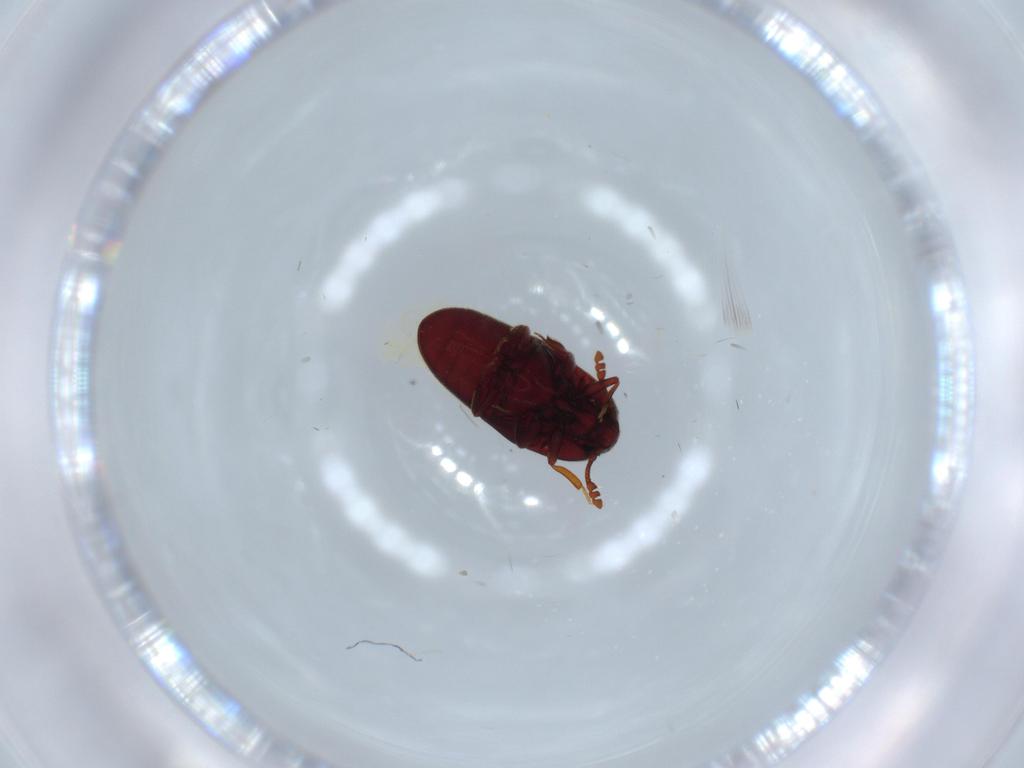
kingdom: Animalia
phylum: Arthropoda
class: Insecta
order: Coleoptera
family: Throscidae
